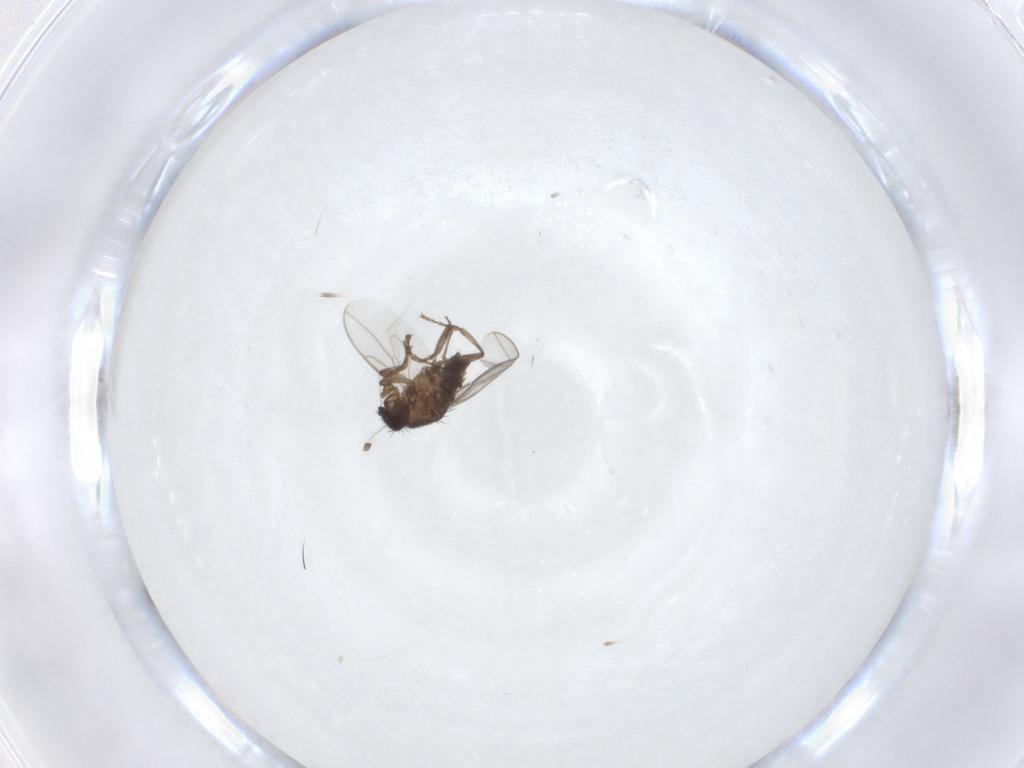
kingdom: Animalia
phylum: Arthropoda
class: Insecta
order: Diptera
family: Sphaeroceridae
